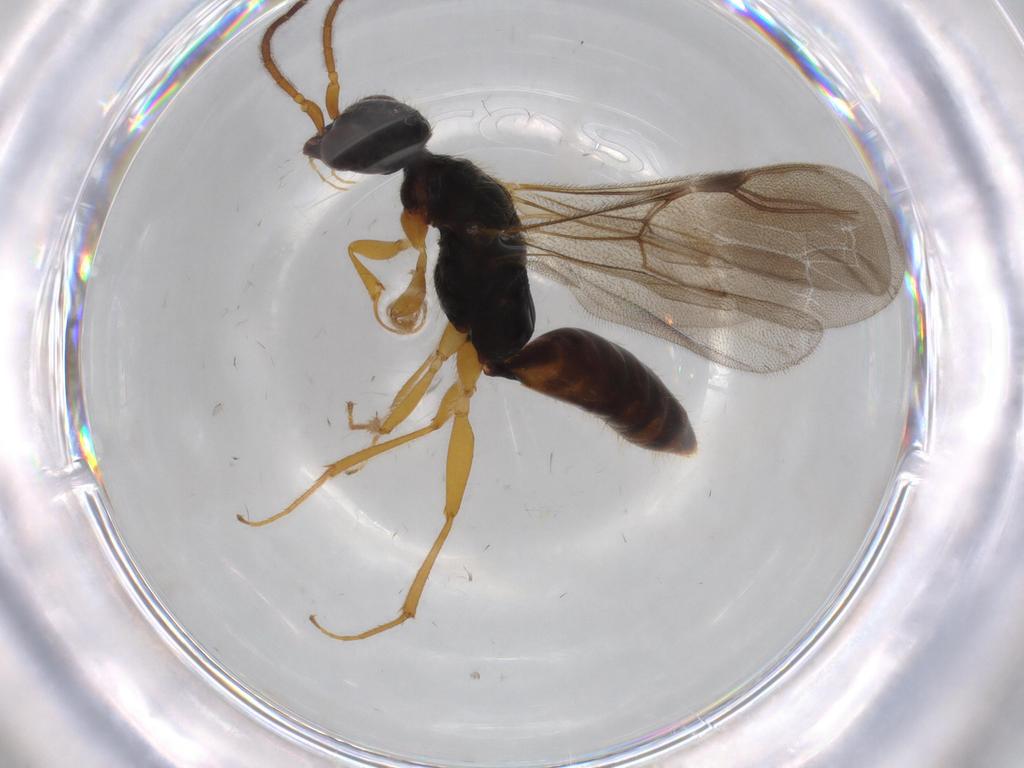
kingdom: Animalia
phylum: Arthropoda
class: Insecta
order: Hymenoptera
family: Bethylidae
